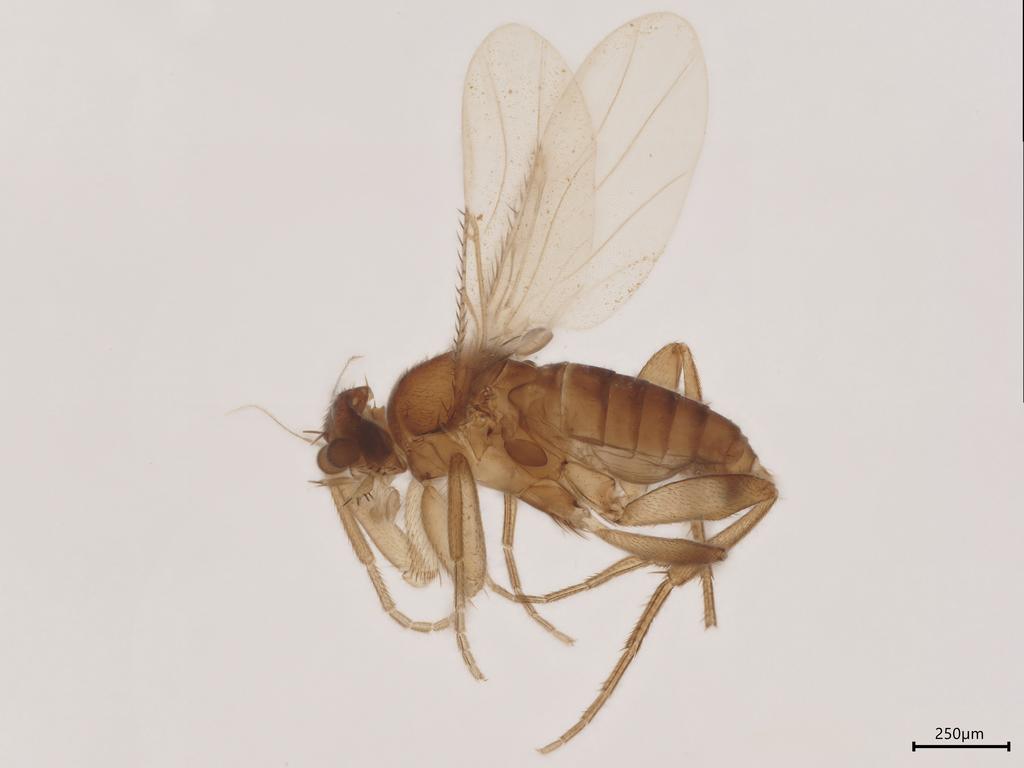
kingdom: Animalia
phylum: Arthropoda
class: Insecta
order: Diptera
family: Phoridae
